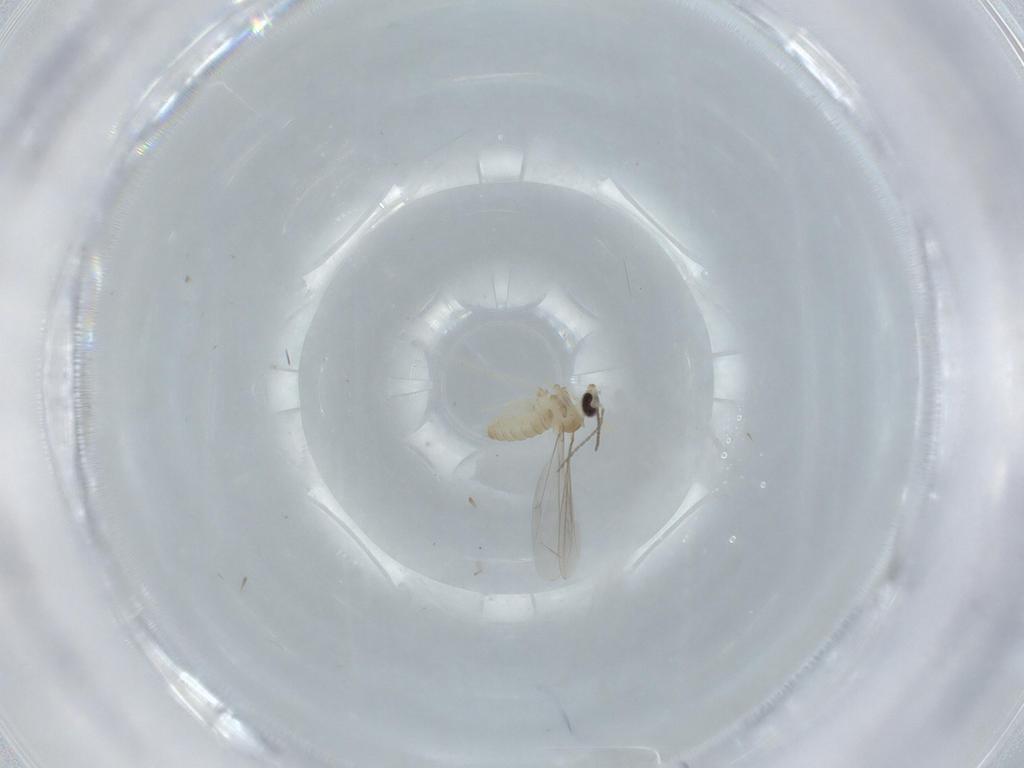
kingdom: Animalia
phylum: Arthropoda
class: Insecta
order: Diptera
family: Cecidomyiidae
